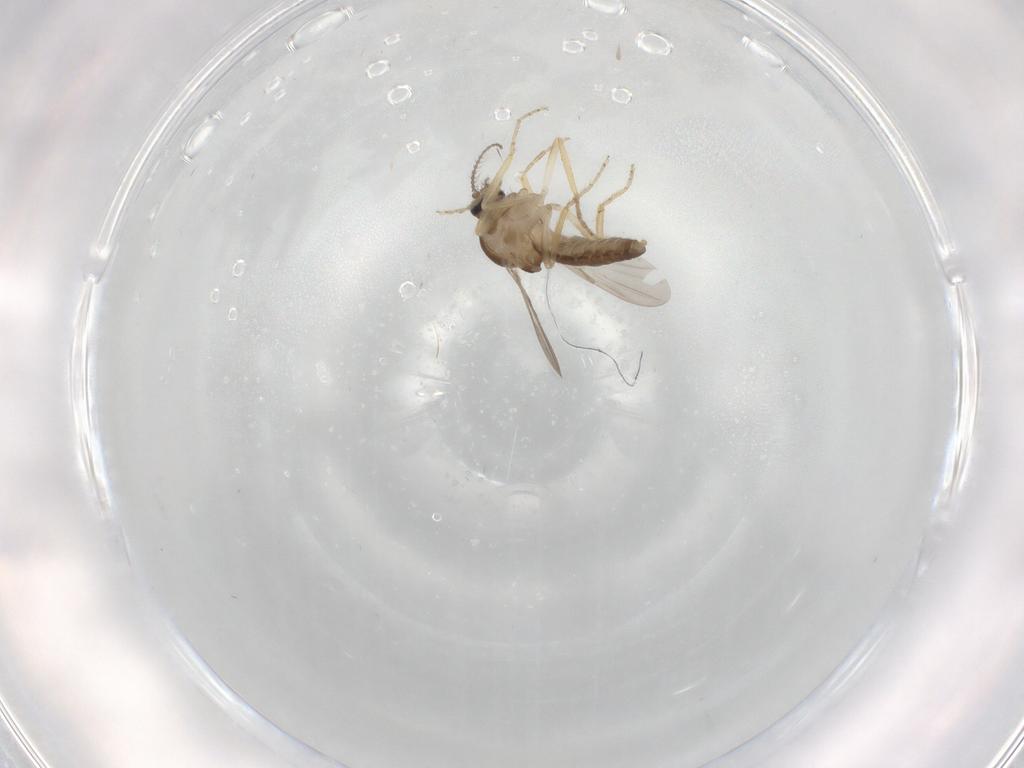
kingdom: Animalia
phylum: Arthropoda
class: Insecta
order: Diptera
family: Ceratopogonidae
